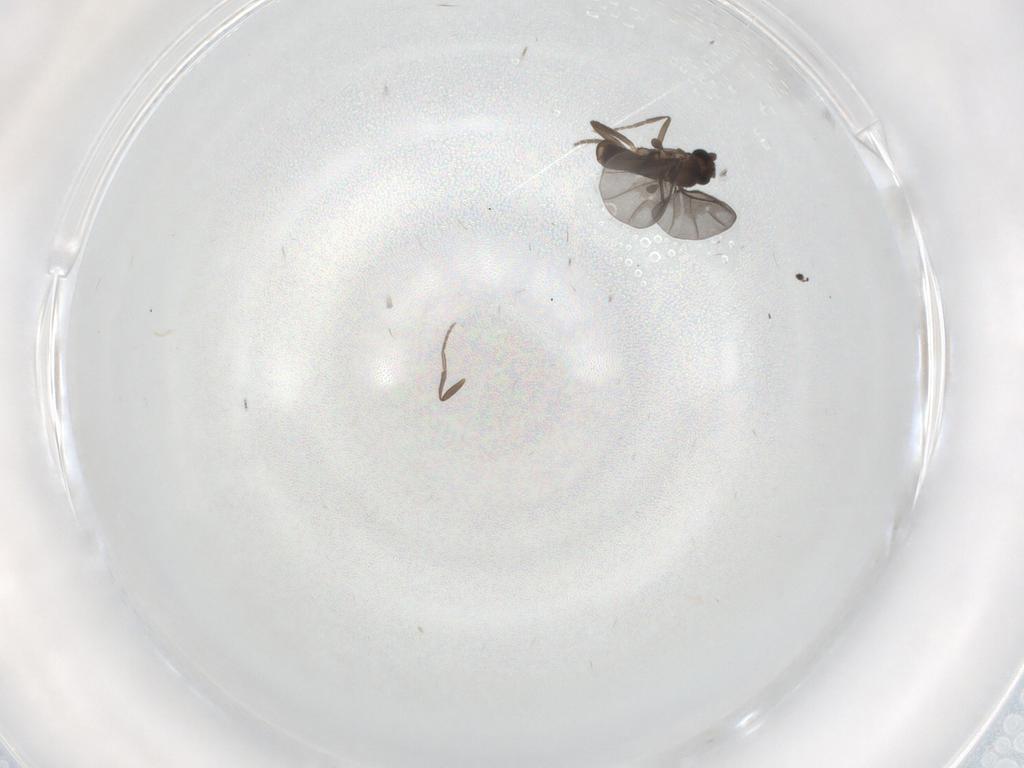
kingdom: Animalia
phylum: Arthropoda
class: Insecta
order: Diptera
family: Phoridae
